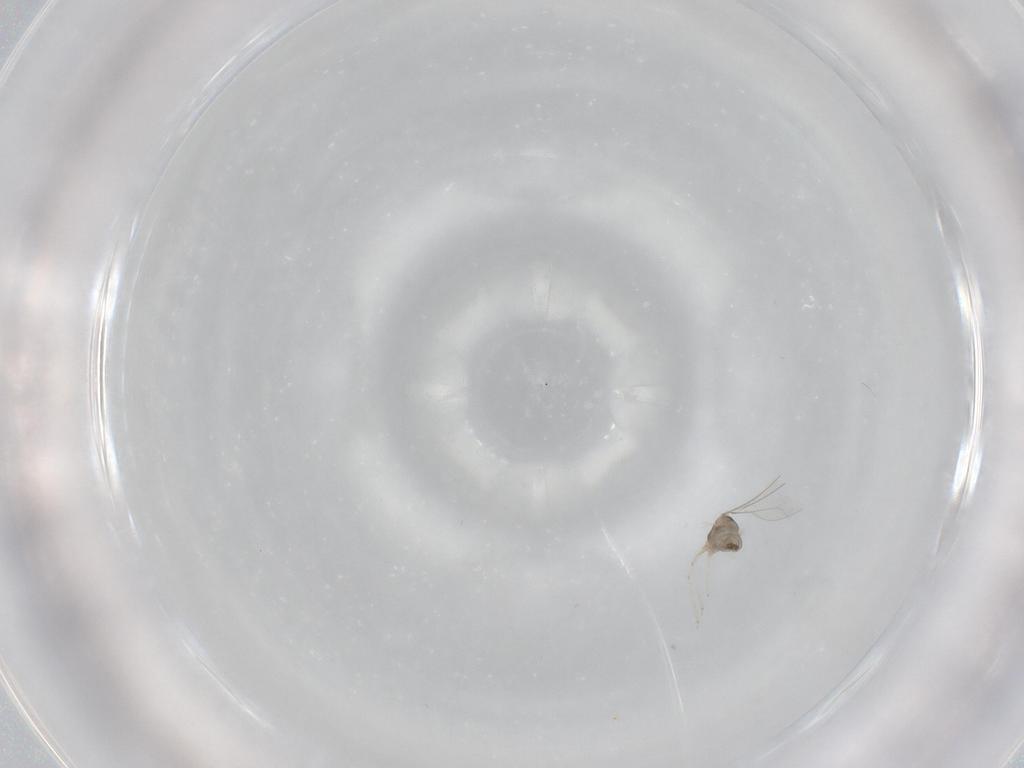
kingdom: Animalia
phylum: Arthropoda
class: Insecta
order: Diptera
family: Cecidomyiidae
